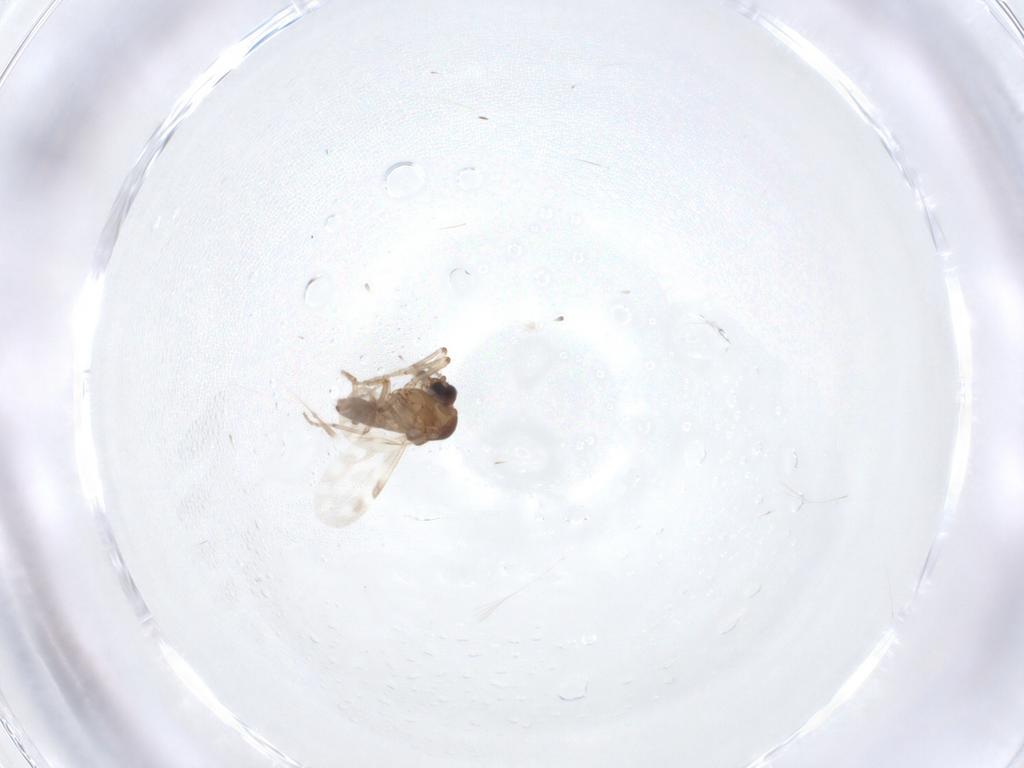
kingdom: Animalia
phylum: Arthropoda
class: Insecta
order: Diptera
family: Ceratopogonidae
